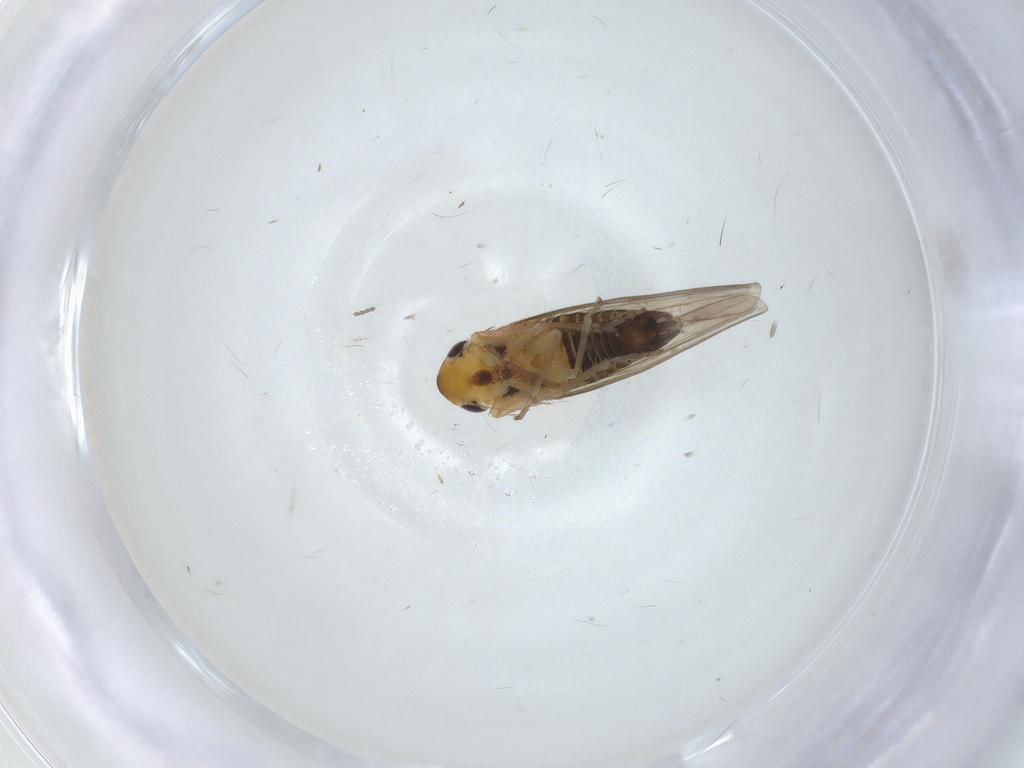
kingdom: Animalia
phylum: Arthropoda
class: Insecta
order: Hemiptera
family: Cicadellidae
